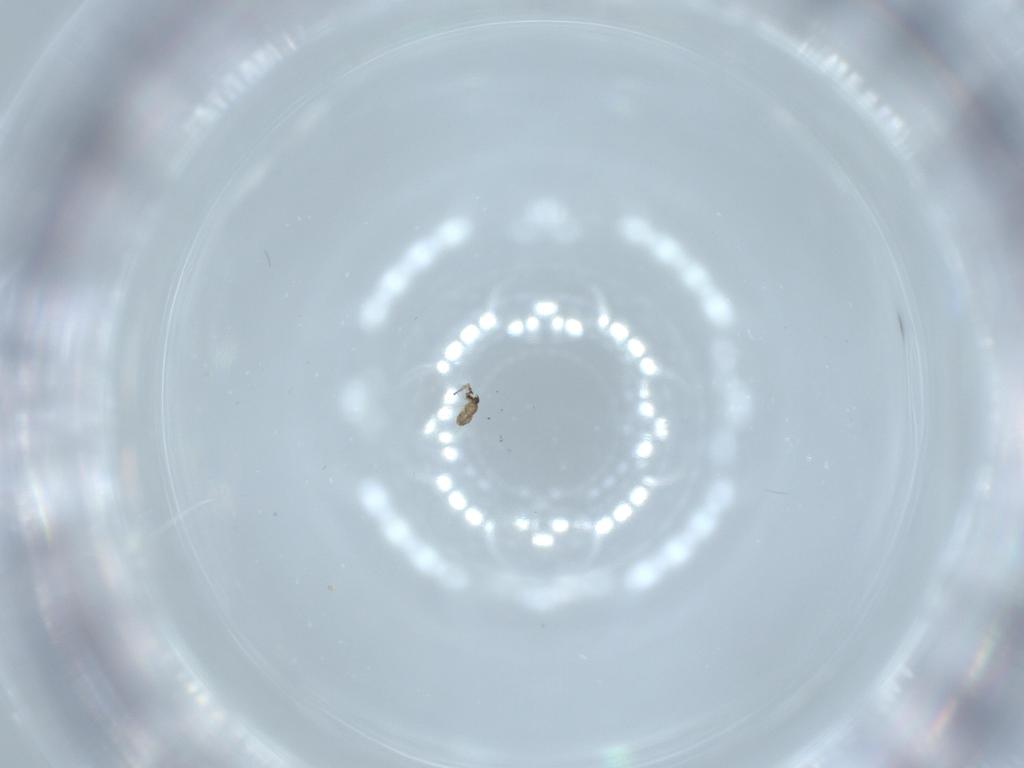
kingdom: Animalia
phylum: Arthropoda
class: Insecta
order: Hymenoptera
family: Mymaridae
